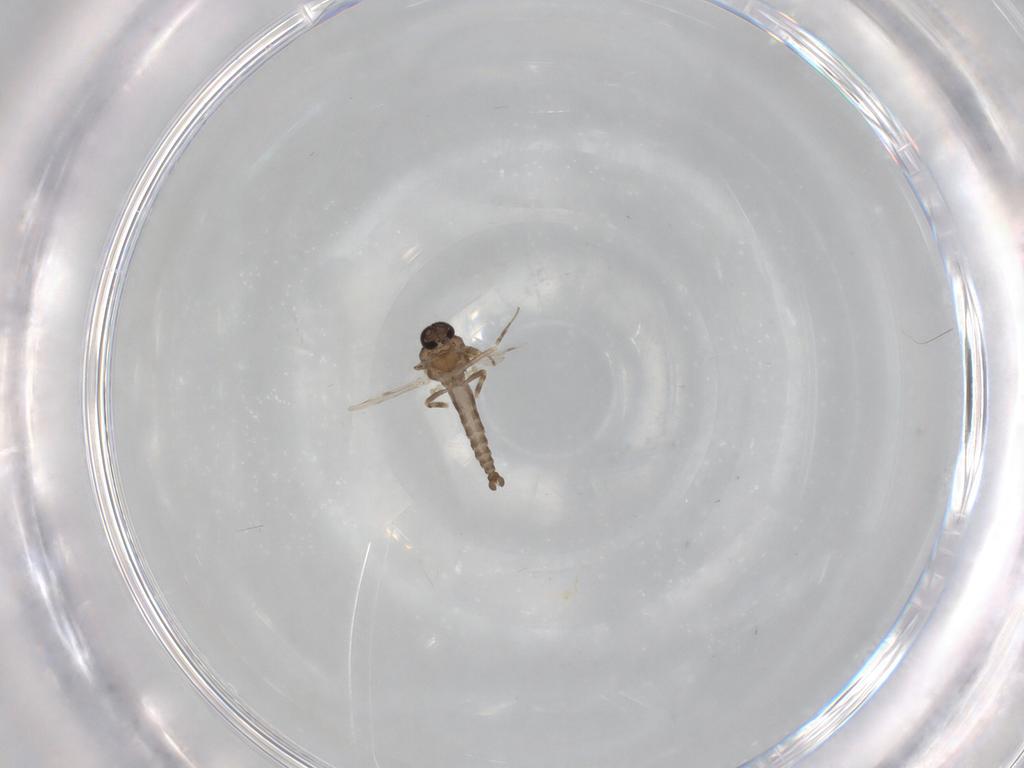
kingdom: Animalia
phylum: Arthropoda
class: Insecta
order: Diptera
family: Ceratopogonidae
